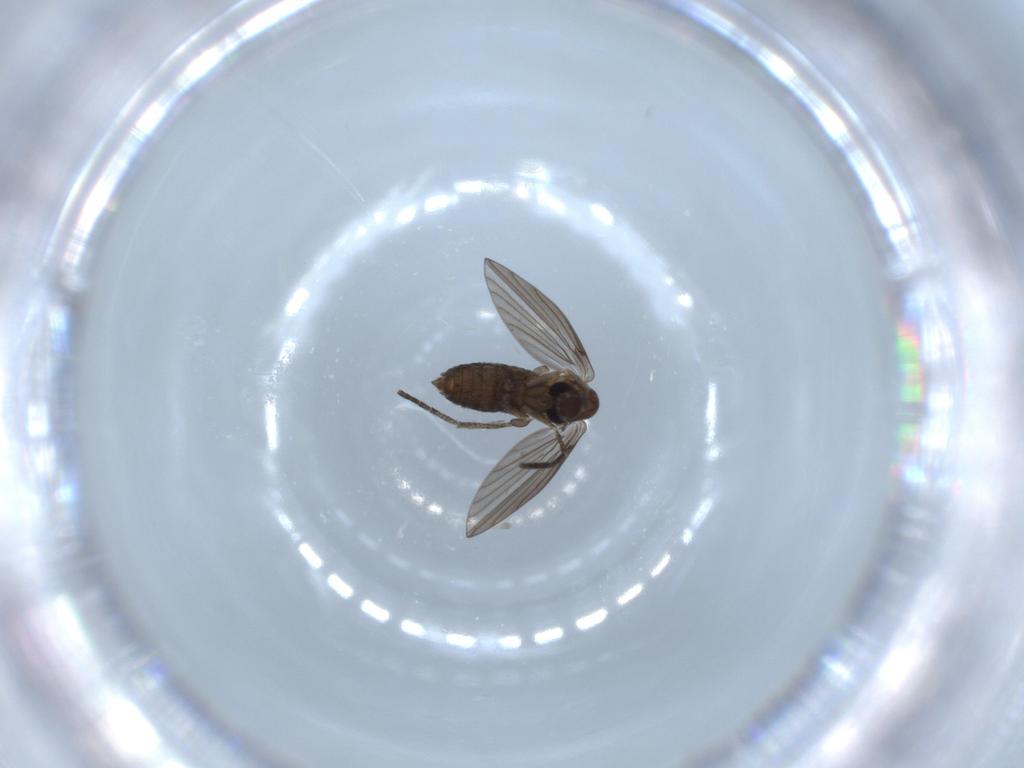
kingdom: Animalia
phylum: Arthropoda
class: Insecta
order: Diptera
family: Psychodidae
